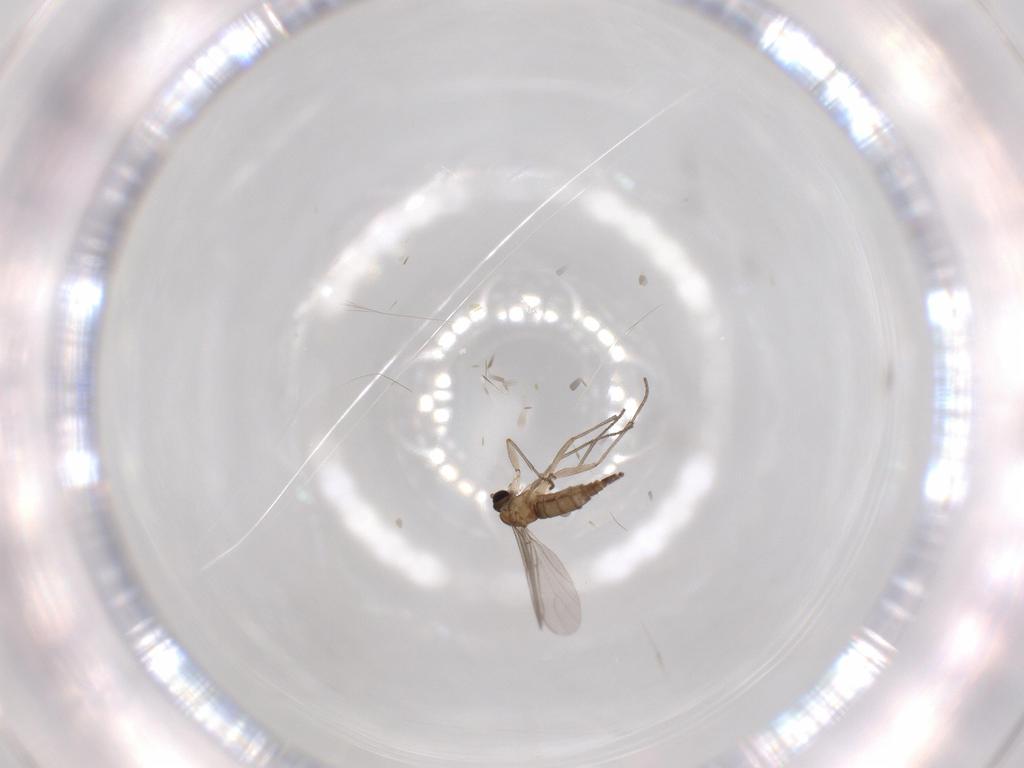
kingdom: Animalia
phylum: Arthropoda
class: Insecta
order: Diptera
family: Sciaridae
